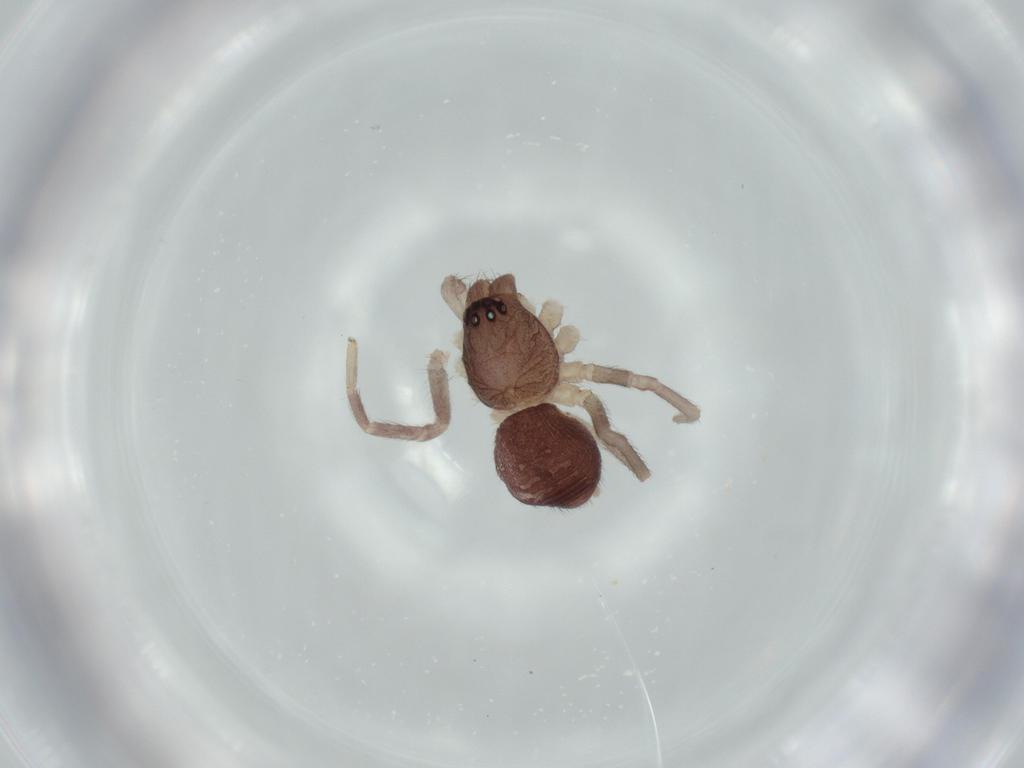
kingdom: Animalia
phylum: Arthropoda
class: Arachnida
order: Araneae
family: Corinnidae
